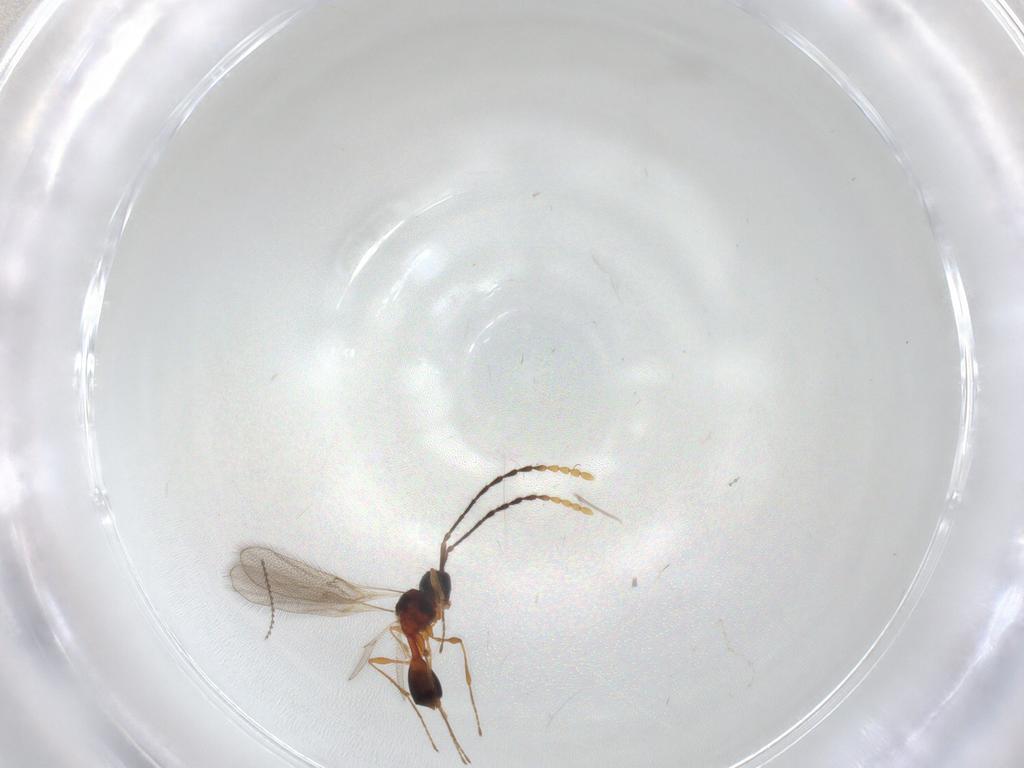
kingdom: Animalia
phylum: Arthropoda
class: Insecta
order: Hymenoptera
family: Diapriidae
